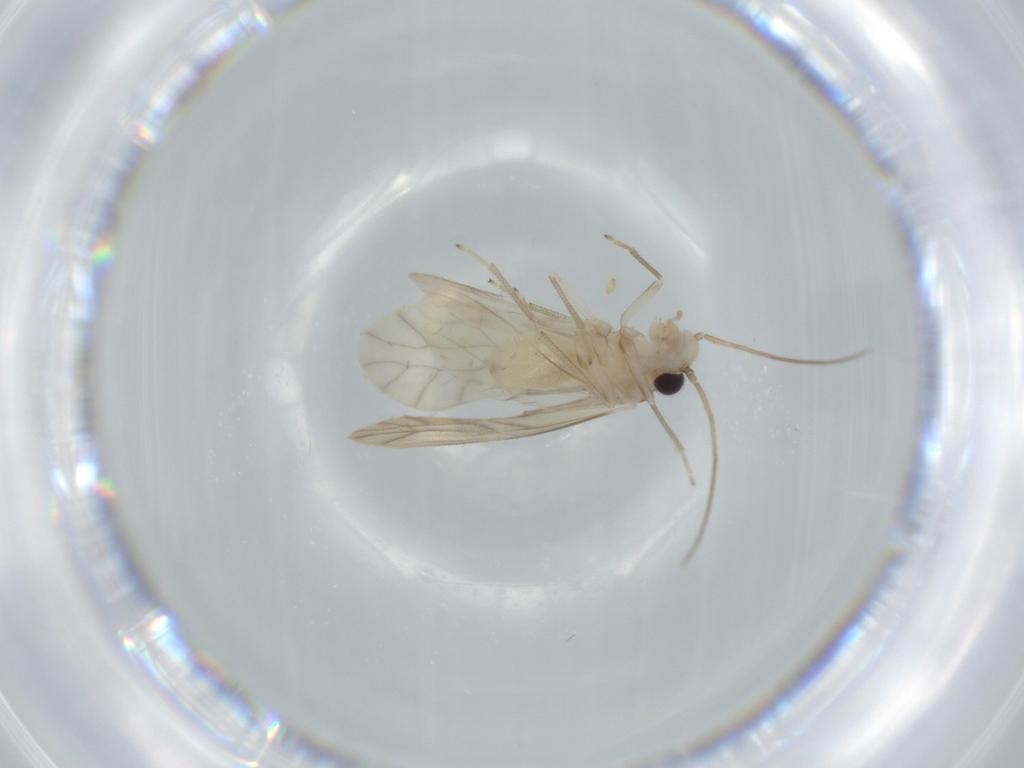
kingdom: Animalia
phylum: Arthropoda
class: Insecta
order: Psocodea
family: Caeciliusidae
